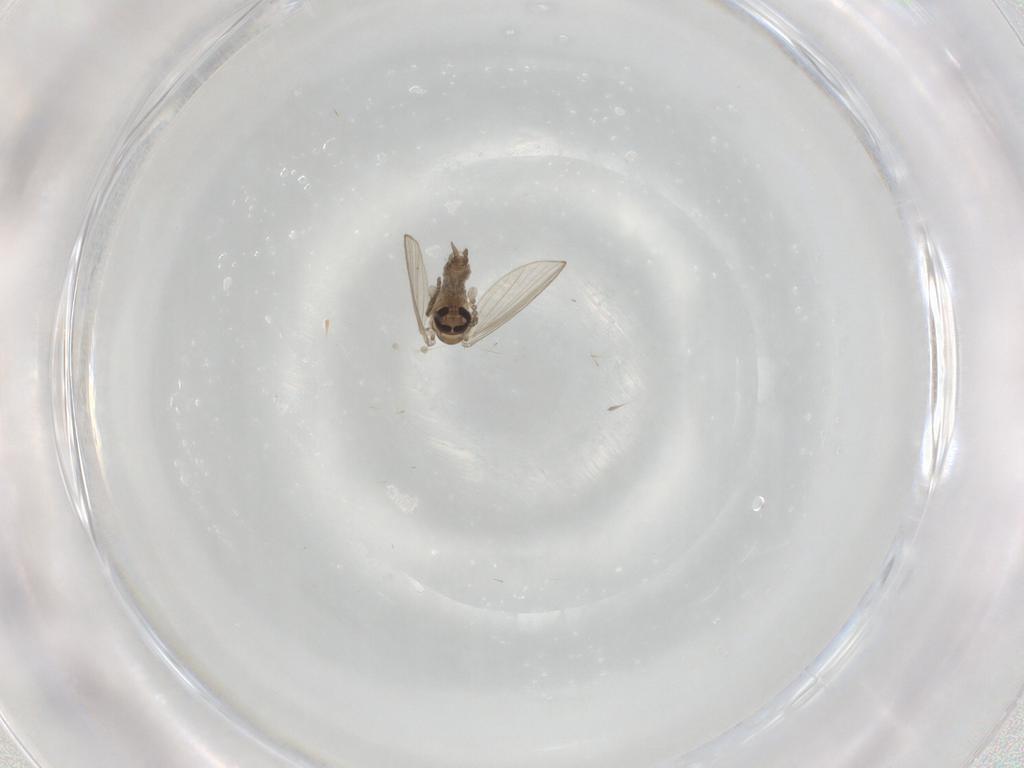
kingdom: Animalia
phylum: Arthropoda
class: Insecta
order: Diptera
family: Psychodidae
